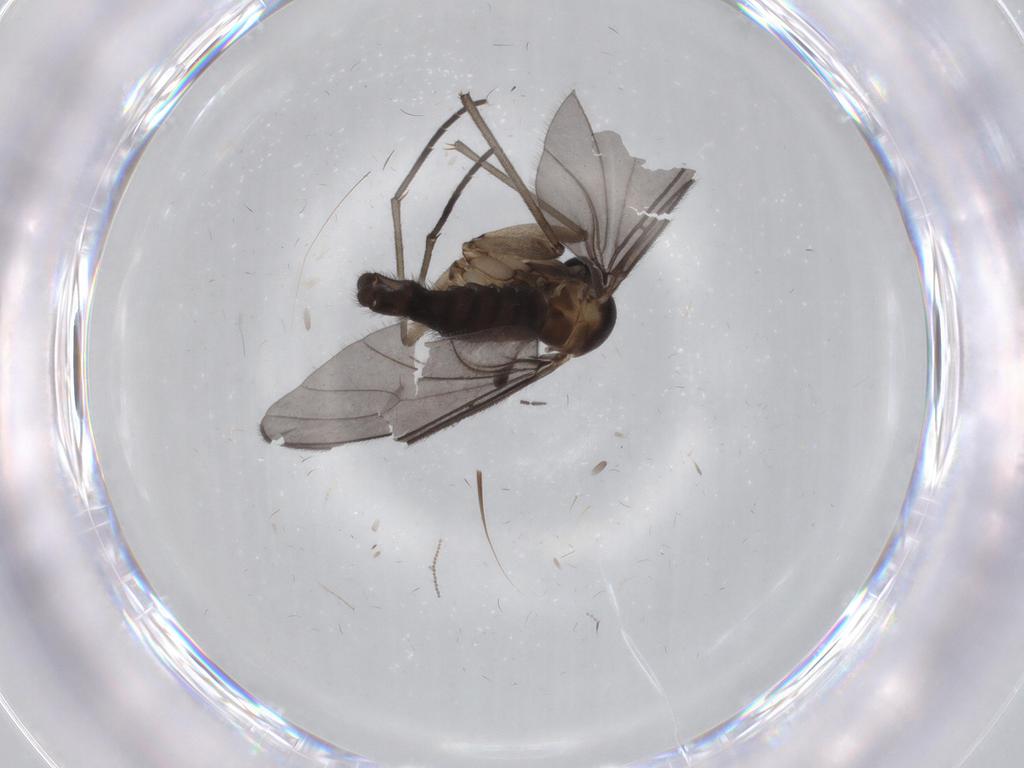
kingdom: Animalia
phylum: Arthropoda
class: Insecta
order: Diptera
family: Sciaridae
